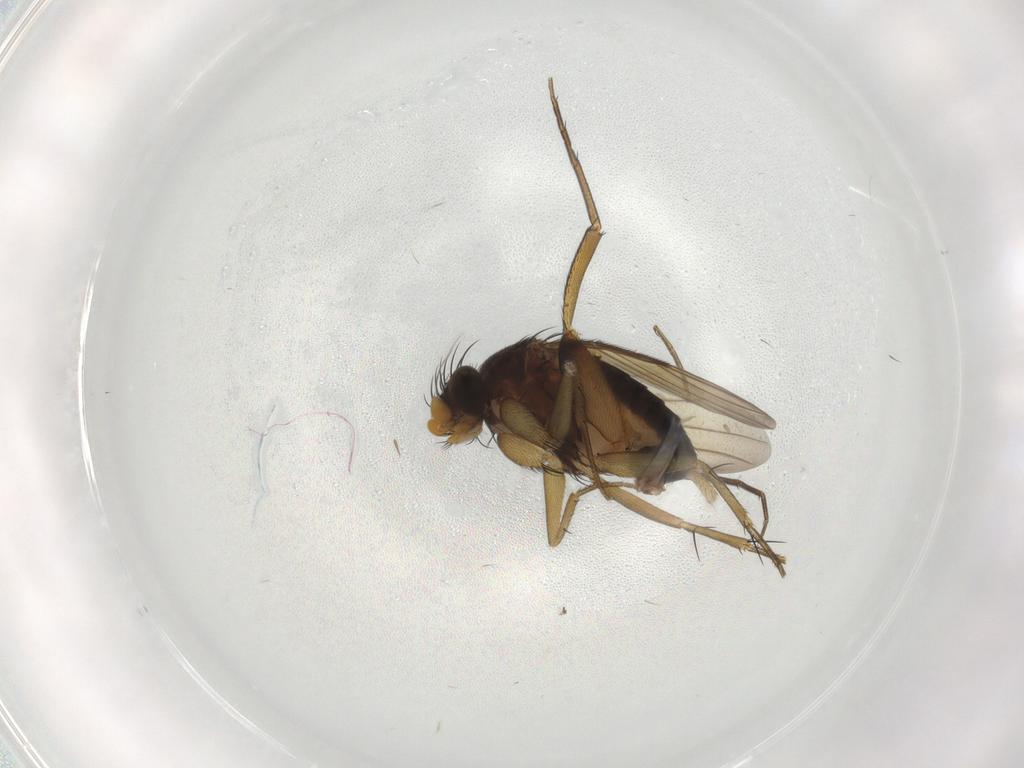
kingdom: Animalia
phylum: Arthropoda
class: Insecta
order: Diptera
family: Phoridae
